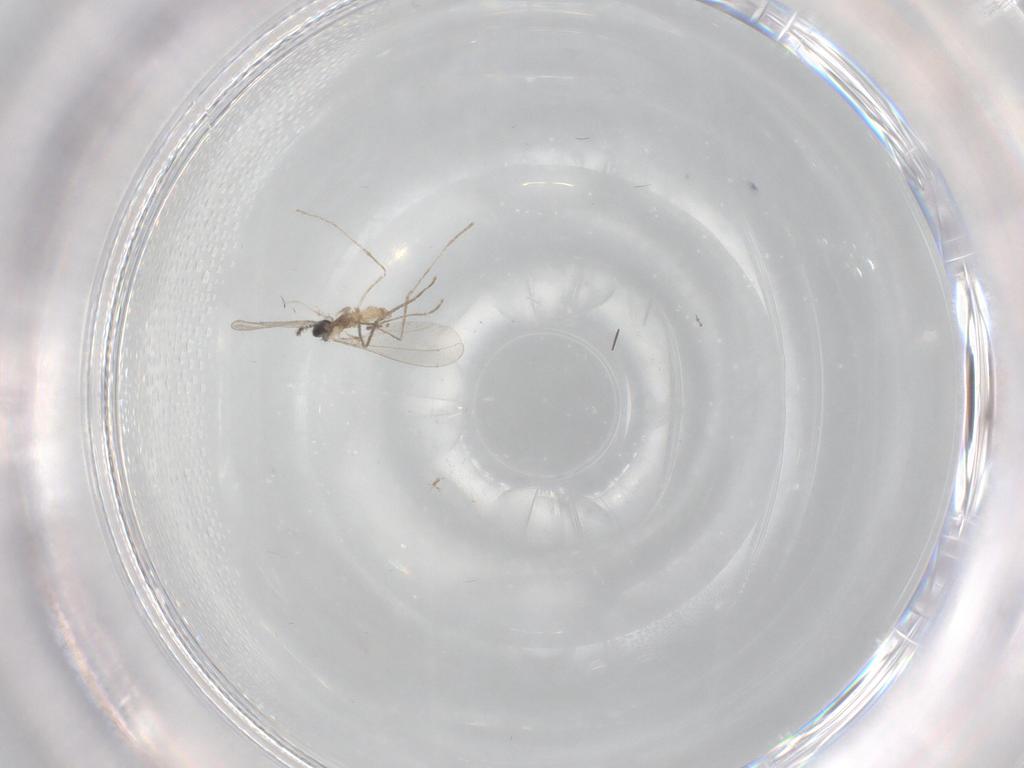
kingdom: Animalia
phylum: Arthropoda
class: Insecta
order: Diptera
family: Cecidomyiidae
